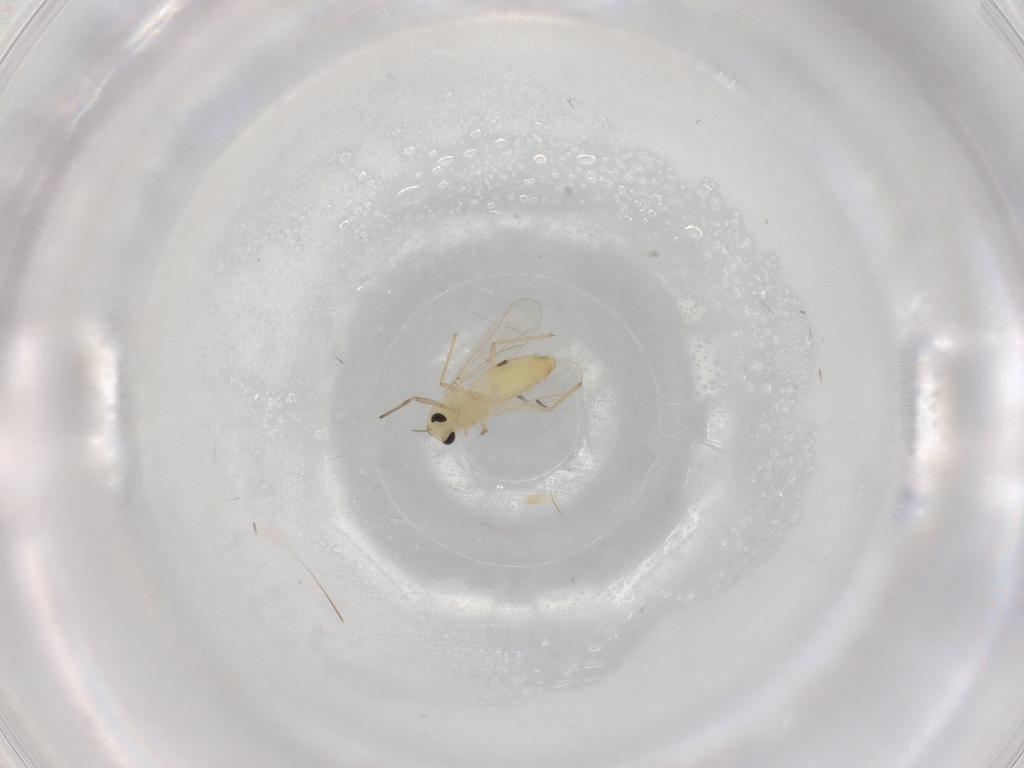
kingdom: Animalia
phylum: Arthropoda
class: Insecta
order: Diptera
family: Chironomidae
